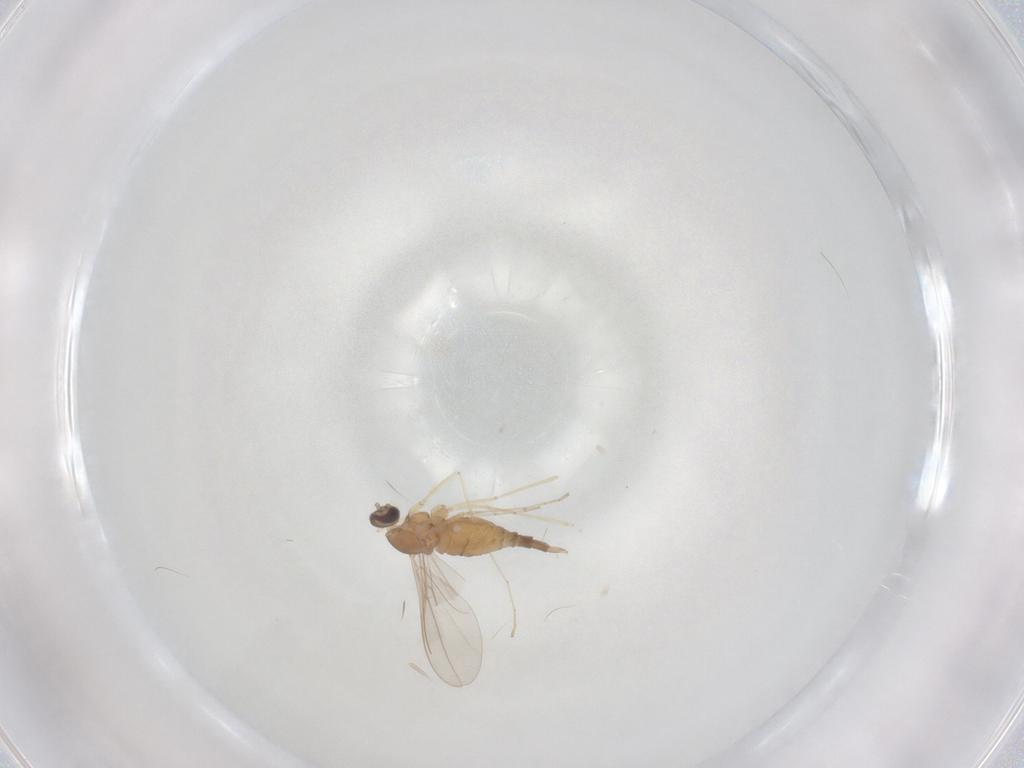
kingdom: Animalia
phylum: Arthropoda
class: Insecta
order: Diptera
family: Cecidomyiidae
